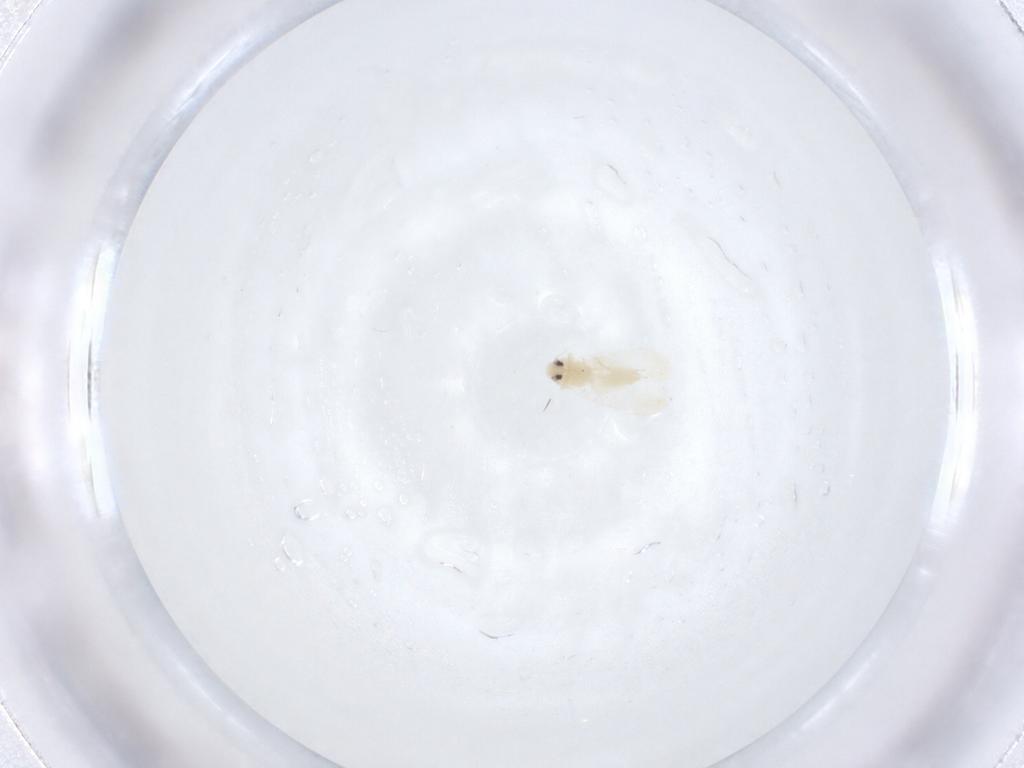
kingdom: Animalia
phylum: Arthropoda
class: Insecta
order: Hemiptera
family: Aleyrodidae
